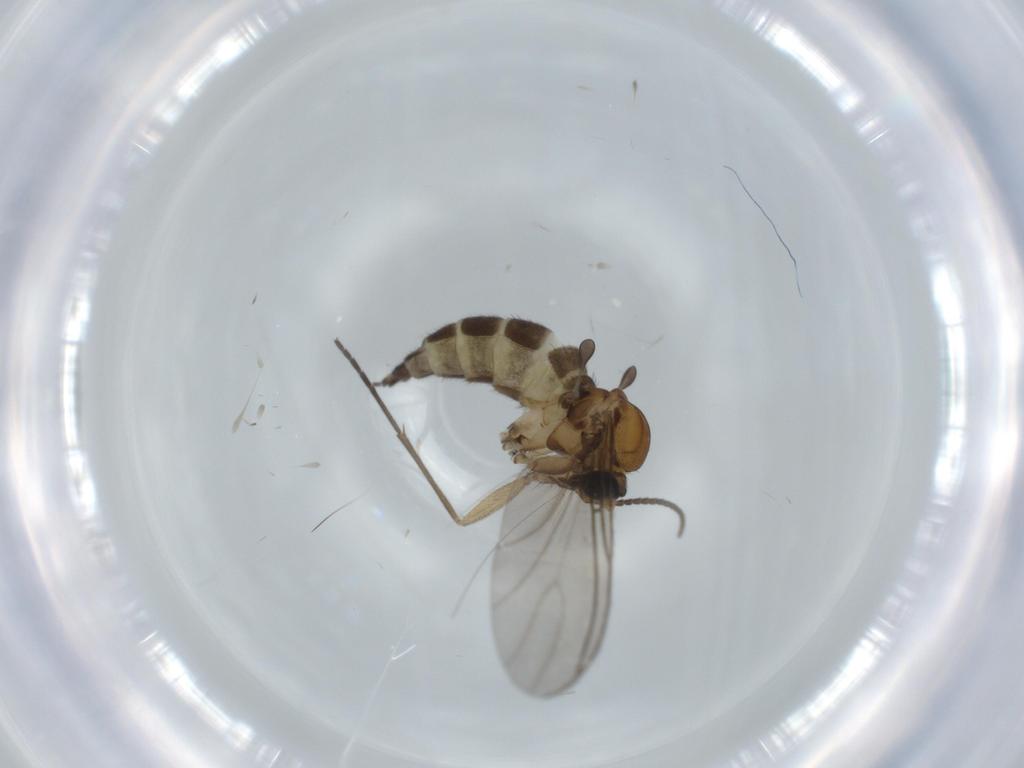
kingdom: Animalia
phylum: Arthropoda
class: Insecta
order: Diptera
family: Sciaridae
